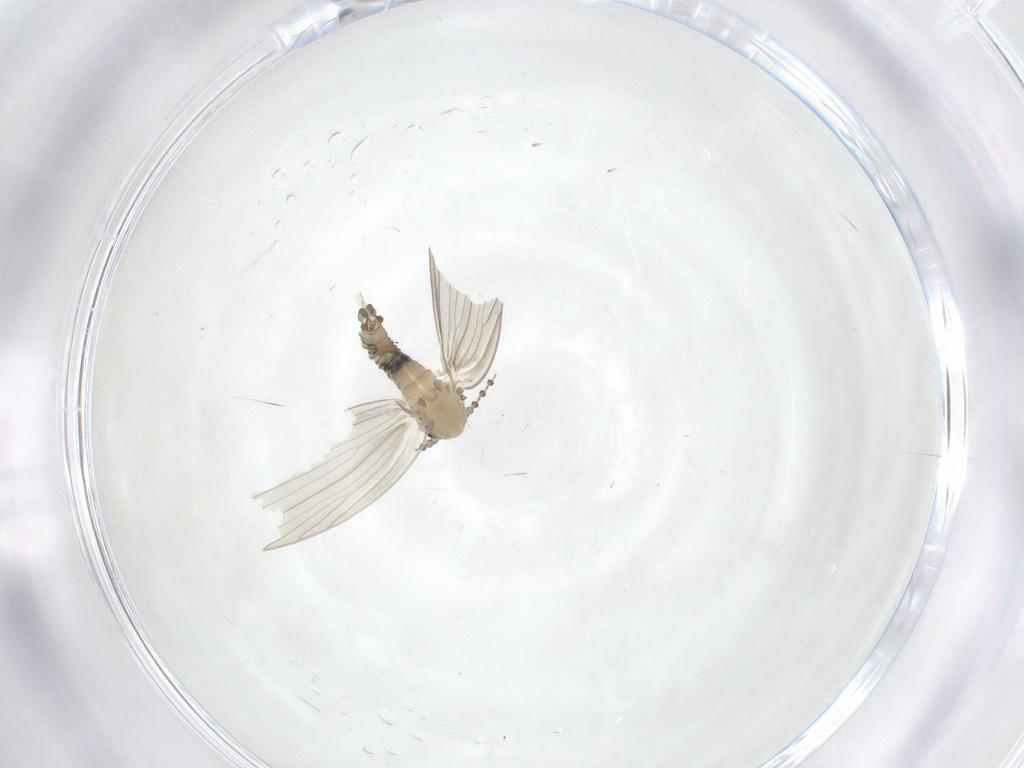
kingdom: Animalia
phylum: Arthropoda
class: Insecta
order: Diptera
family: Psychodidae
